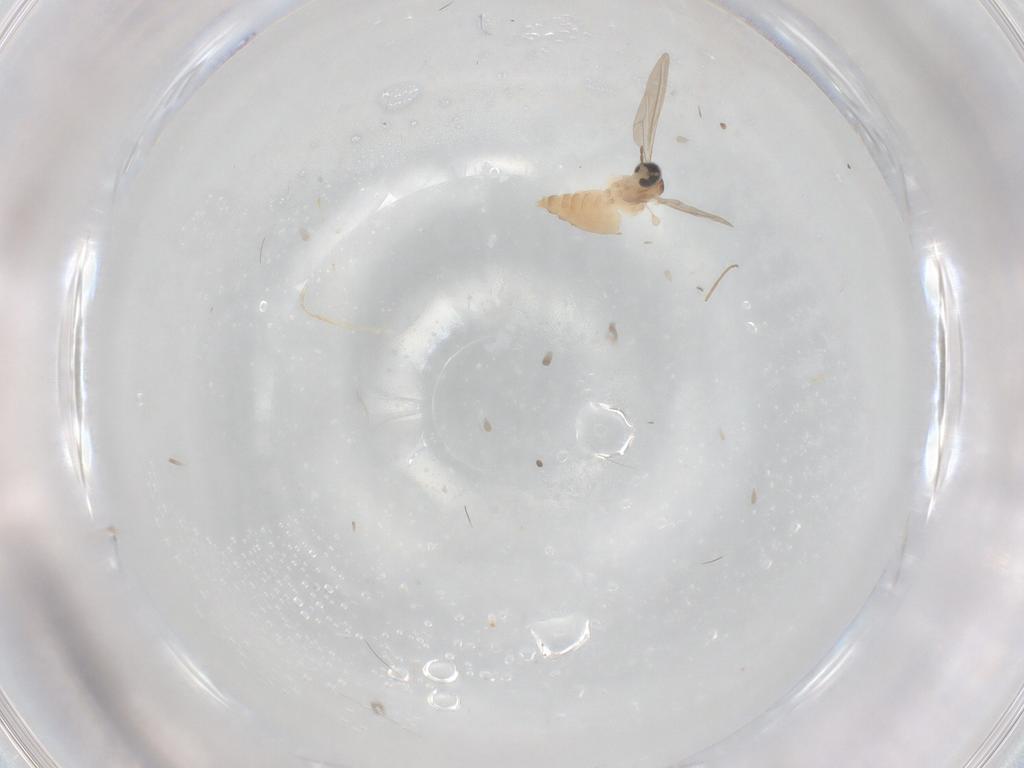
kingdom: Animalia
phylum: Arthropoda
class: Insecta
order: Diptera
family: Chironomidae
